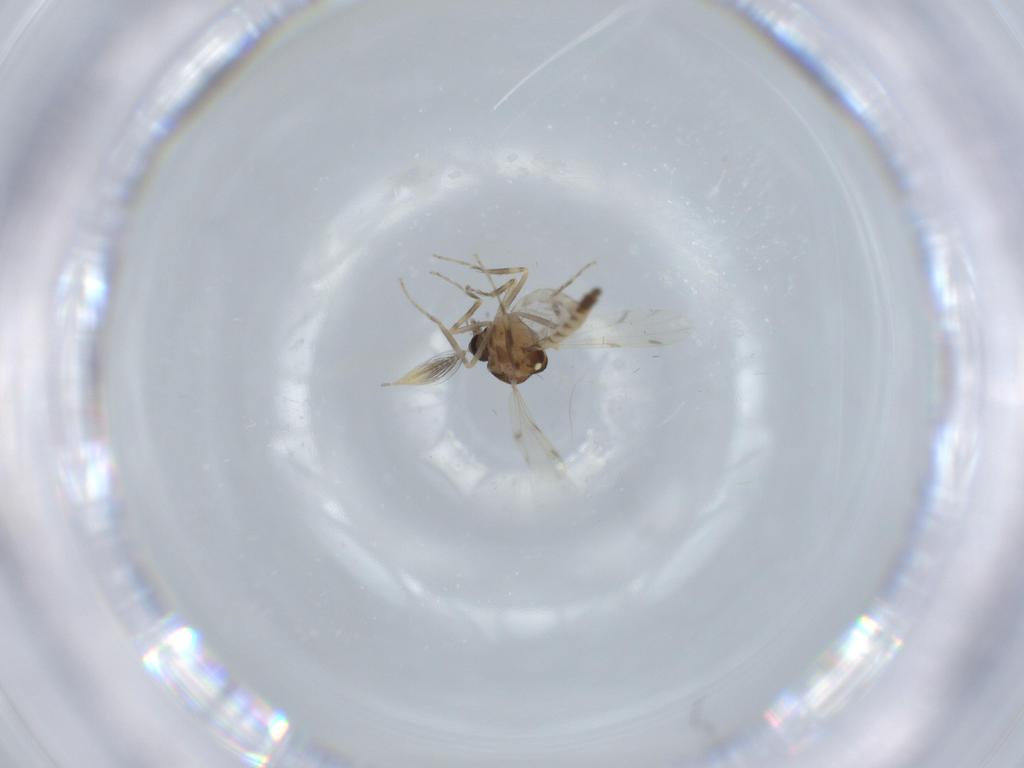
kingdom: Animalia
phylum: Arthropoda
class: Insecta
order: Diptera
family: Ceratopogonidae
